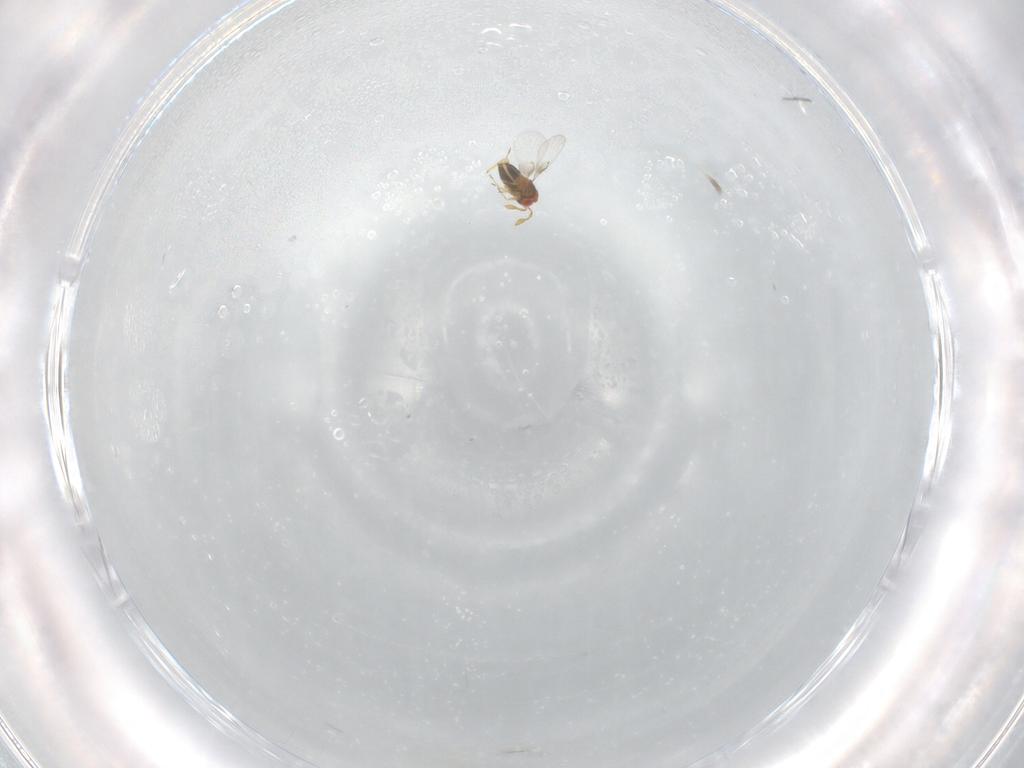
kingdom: Animalia
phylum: Arthropoda
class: Insecta
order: Hymenoptera
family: Trichogrammatidae
